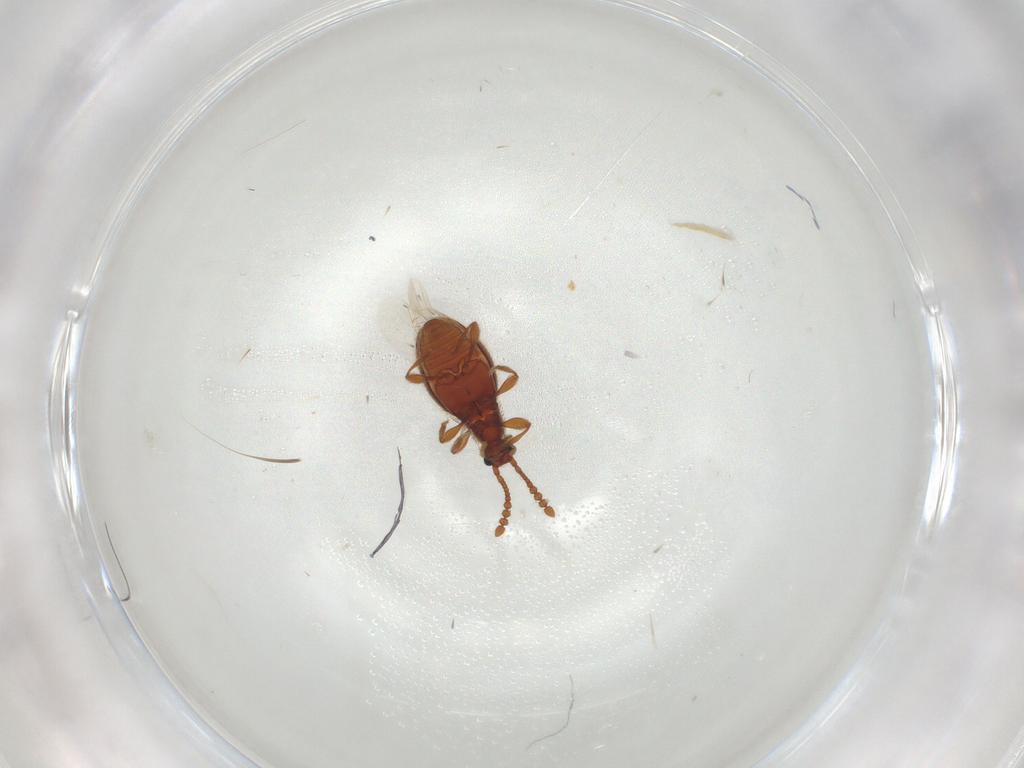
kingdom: Animalia
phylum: Arthropoda
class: Insecta
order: Coleoptera
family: Staphylinidae
